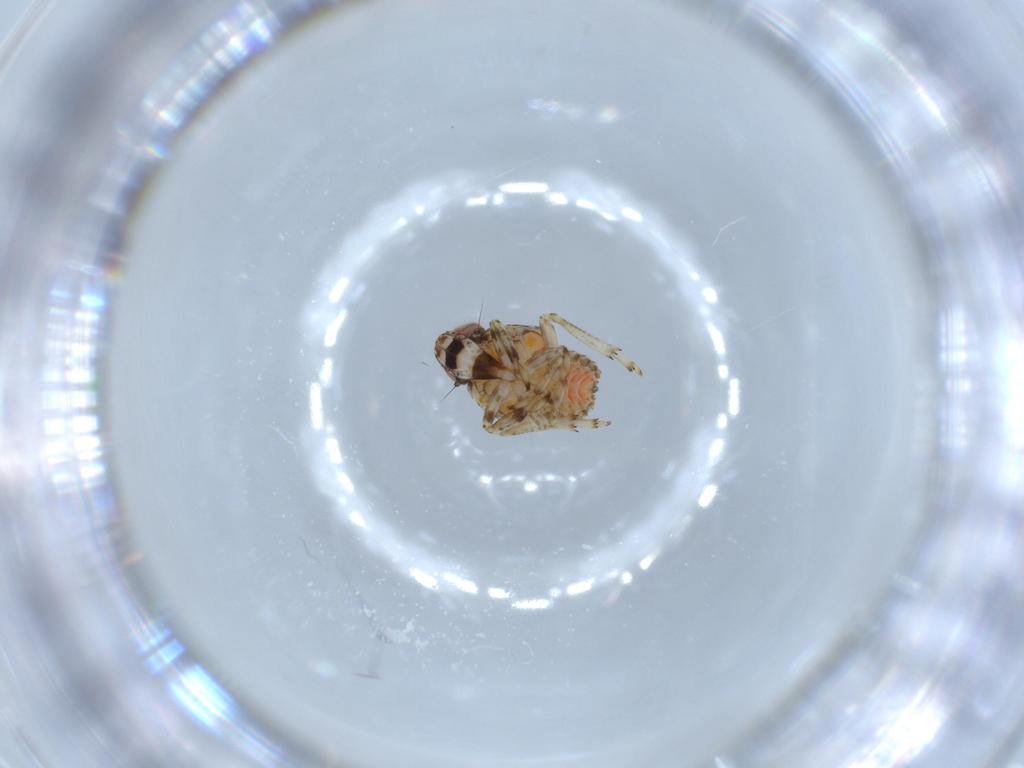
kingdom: Animalia
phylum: Arthropoda
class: Insecta
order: Hemiptera
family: Issidae
